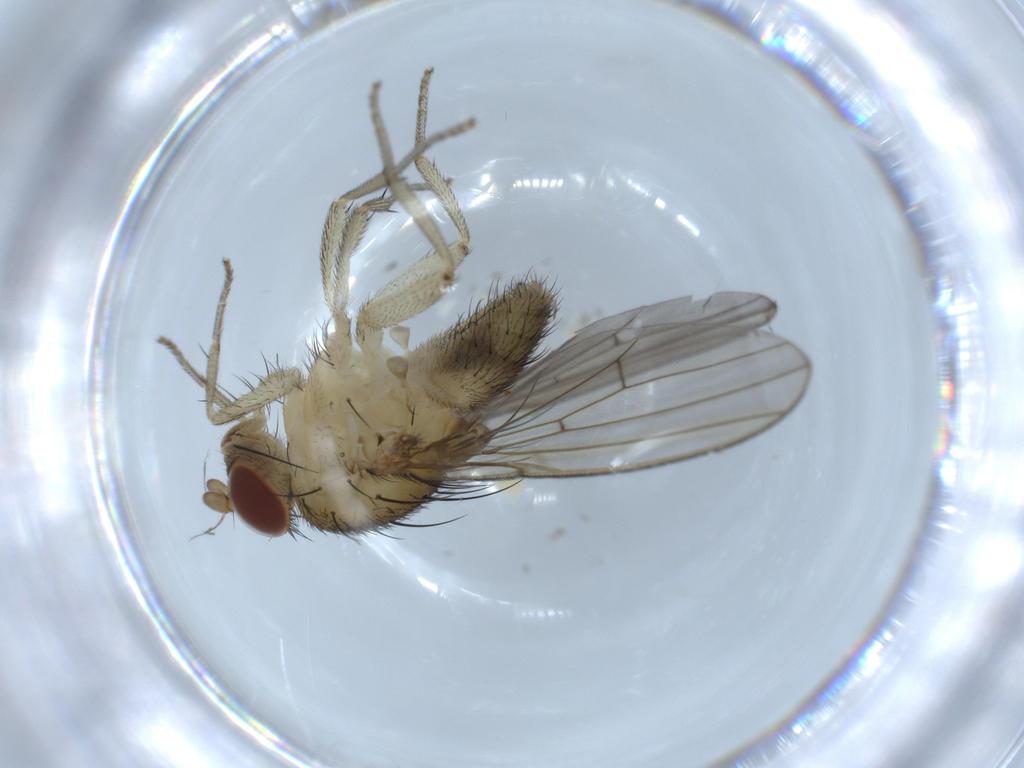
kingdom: Animalia
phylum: Arthropoda
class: Insecta
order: Diptera
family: Lauxaniidae
